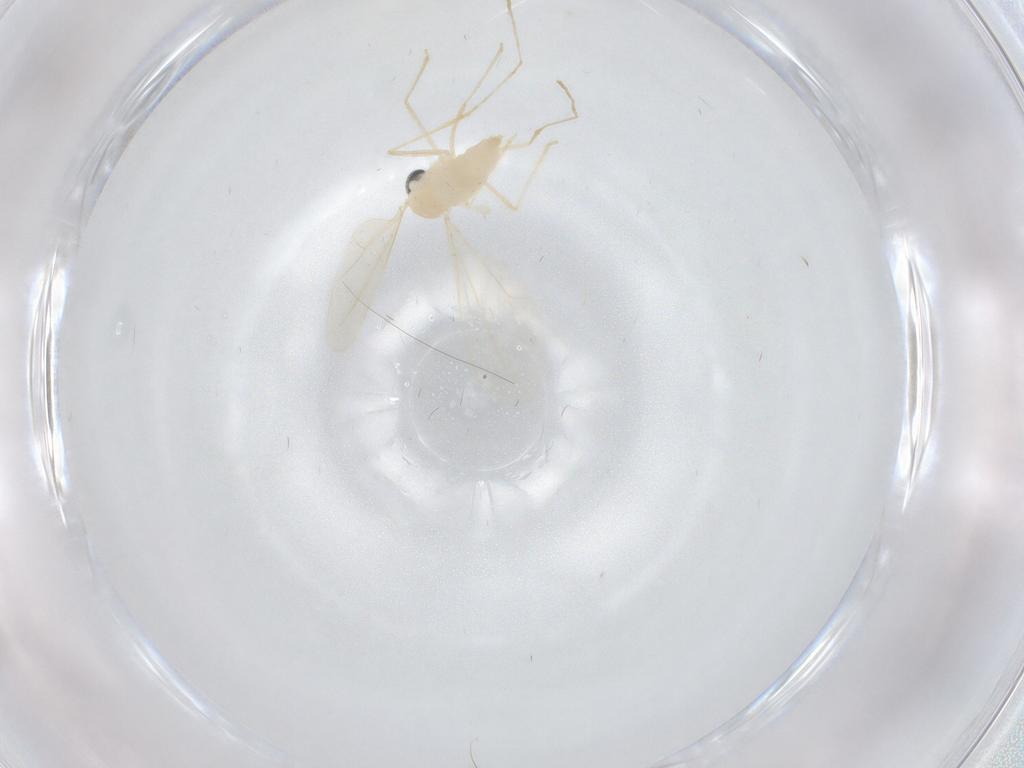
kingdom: Animalia
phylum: Arthropoda
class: Insecta
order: Diptera
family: Cecidomyiidae
